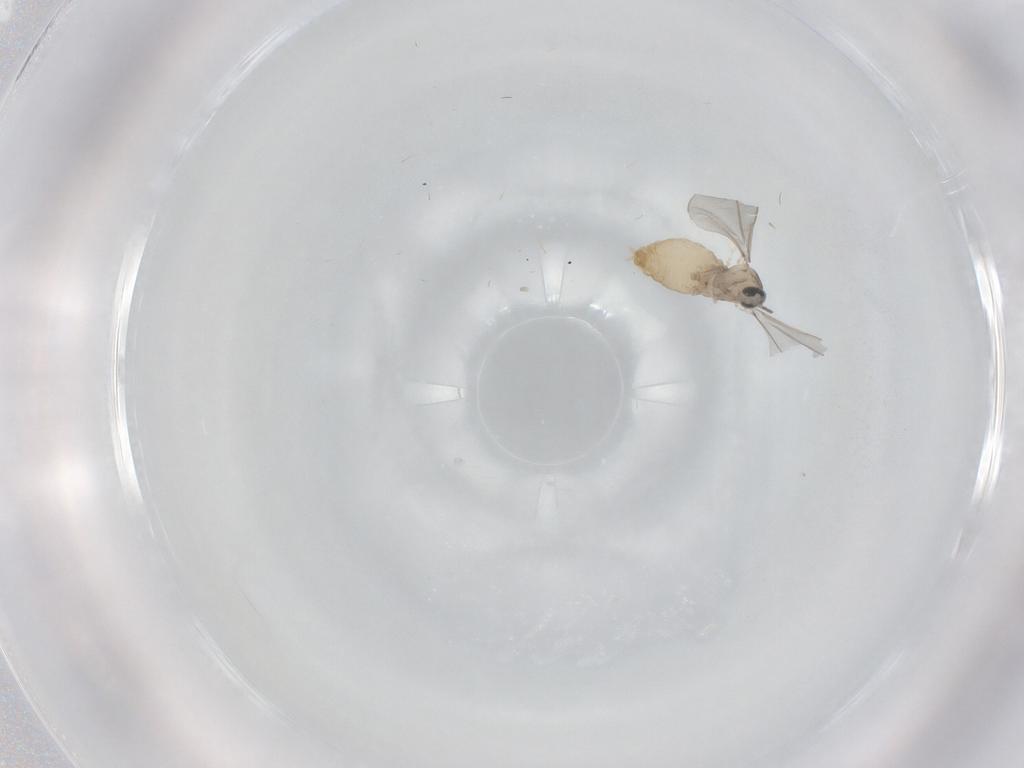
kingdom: Animalia
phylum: Arthropoda
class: Insecta
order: Diptera
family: Cecidomyiidae
